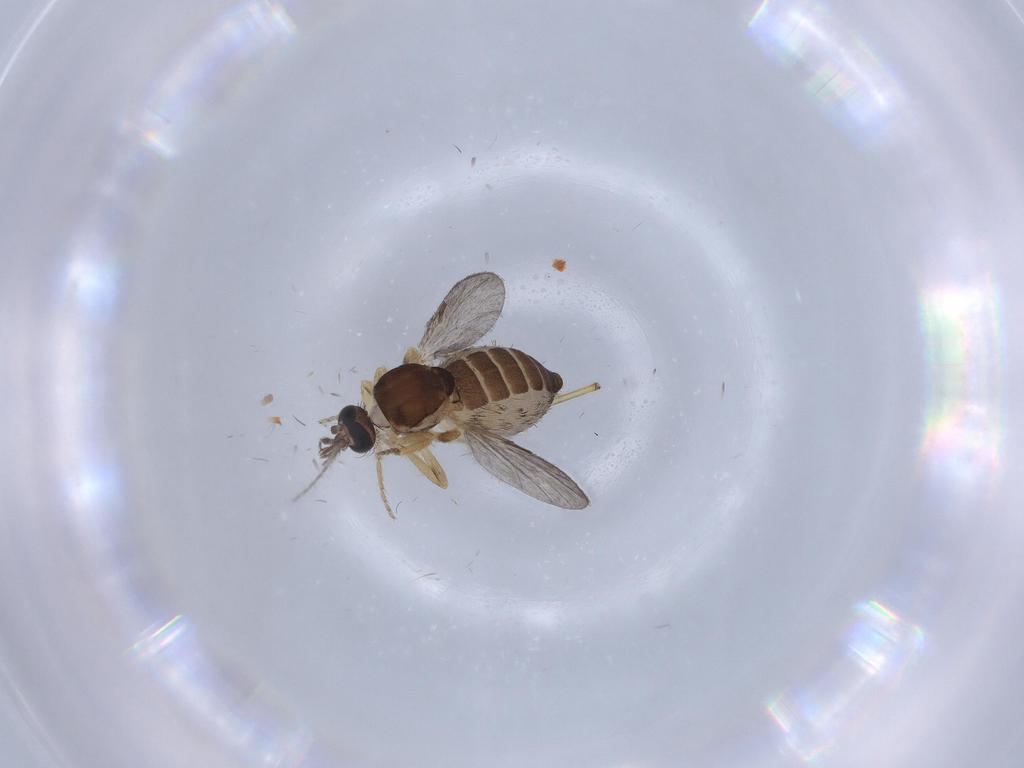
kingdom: Animalia
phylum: Arthropoda
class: Insecta
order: Diptera
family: Ceratopogonidae
